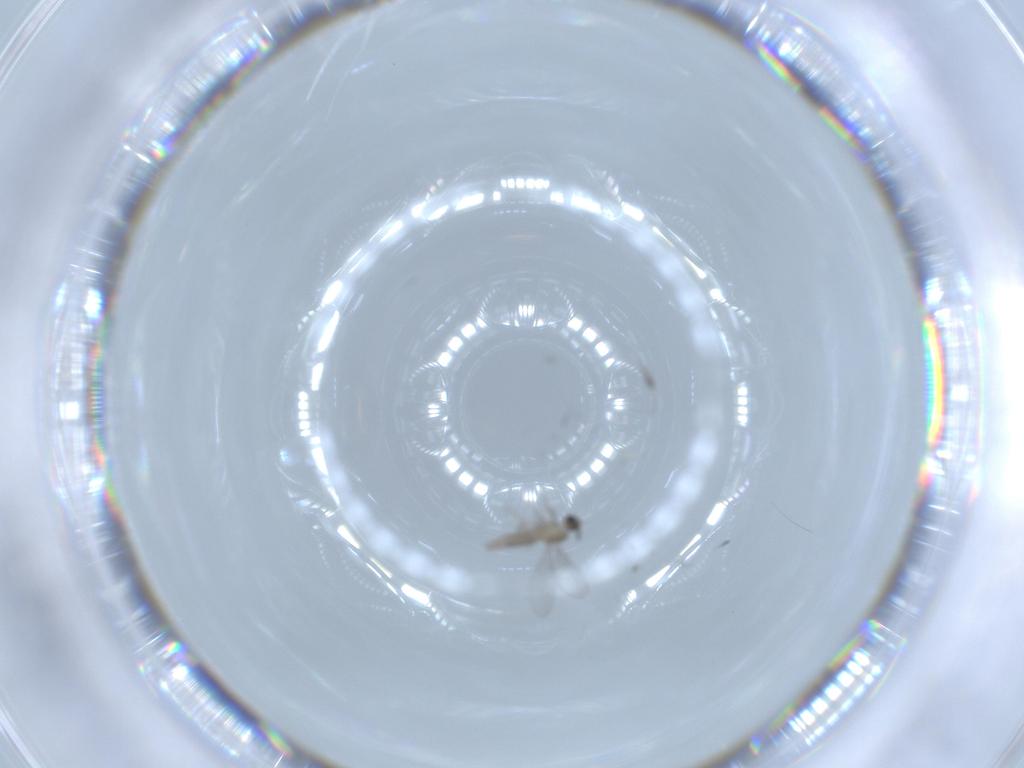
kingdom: Animalia
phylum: Arthropoda
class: Insecta
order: Diptera
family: Cecidomyiidae
